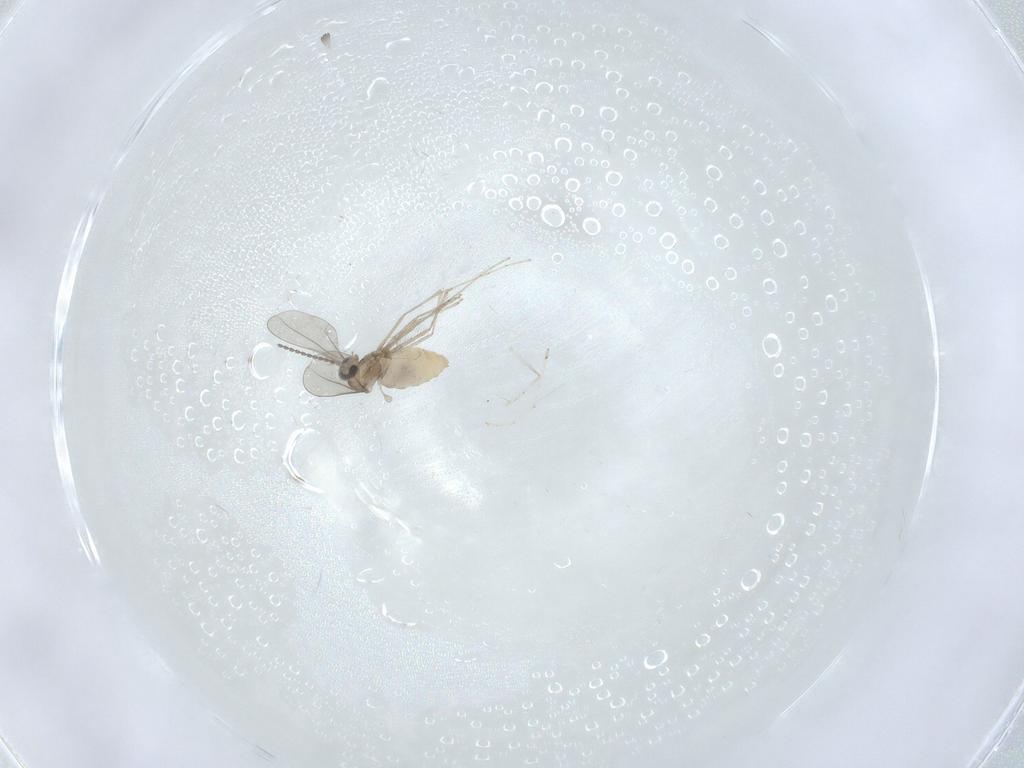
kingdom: Animalia
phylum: Arthropoda
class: Insecta
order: Diptera
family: Cecidomyiidae
